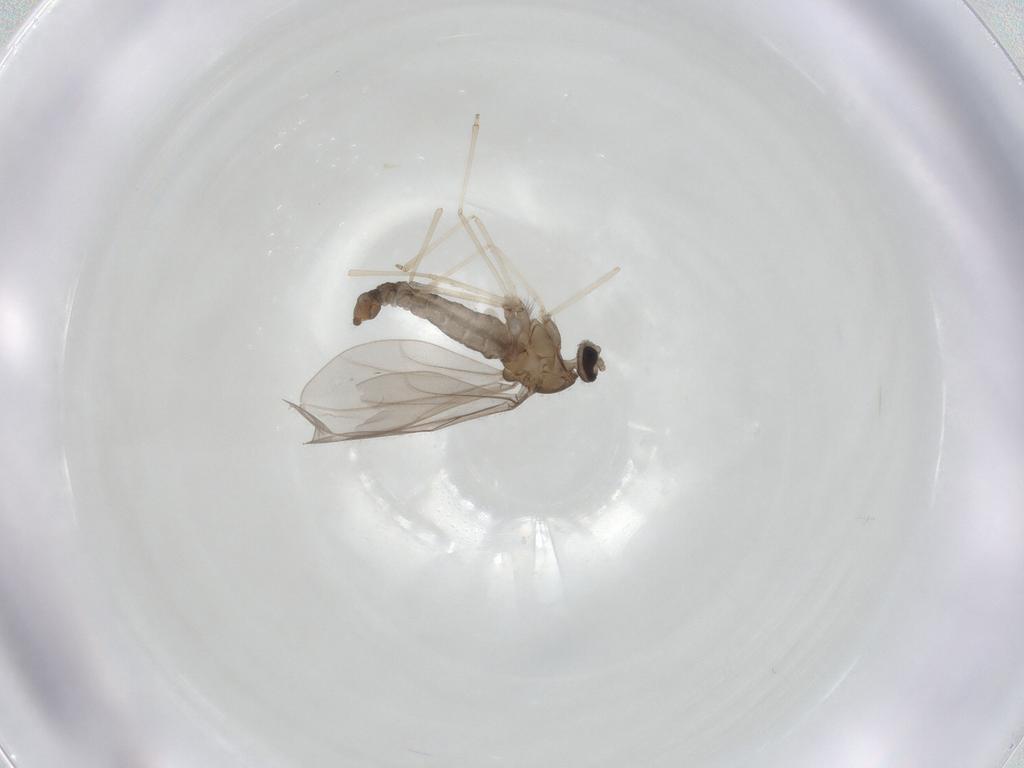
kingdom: Animalia
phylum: Arthropoda
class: Insecta
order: Diptera
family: Cecidomyiidae
